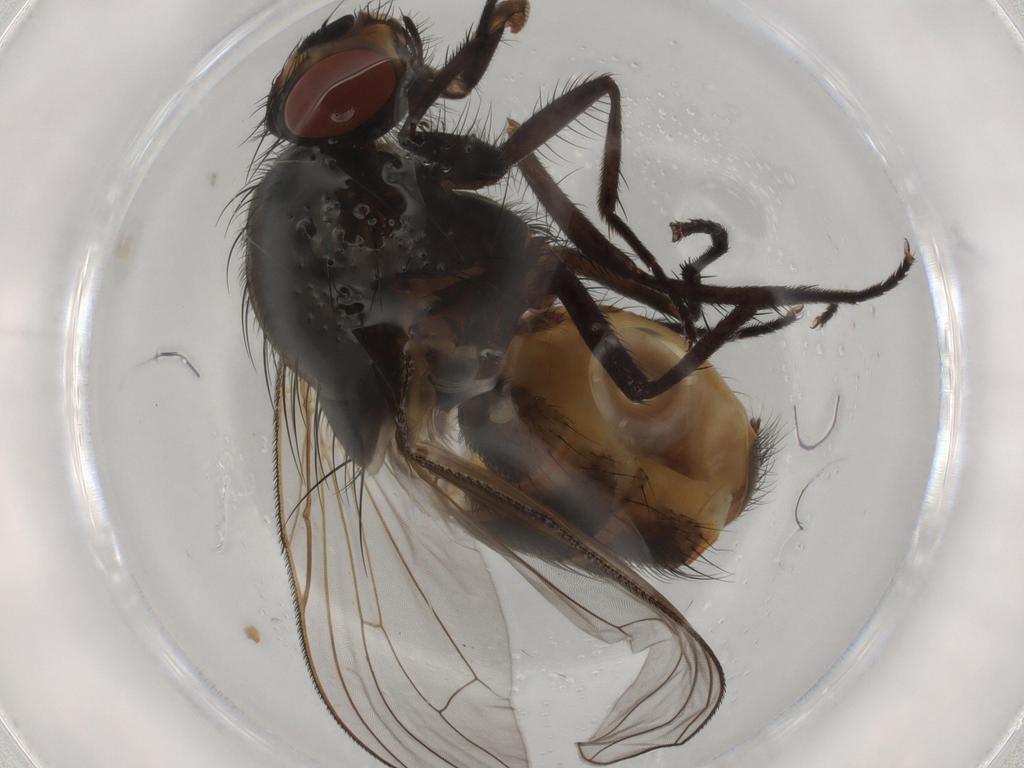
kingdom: Animalia
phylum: Arthropoda
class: Insecta
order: Diptera
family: Drosophilidae
